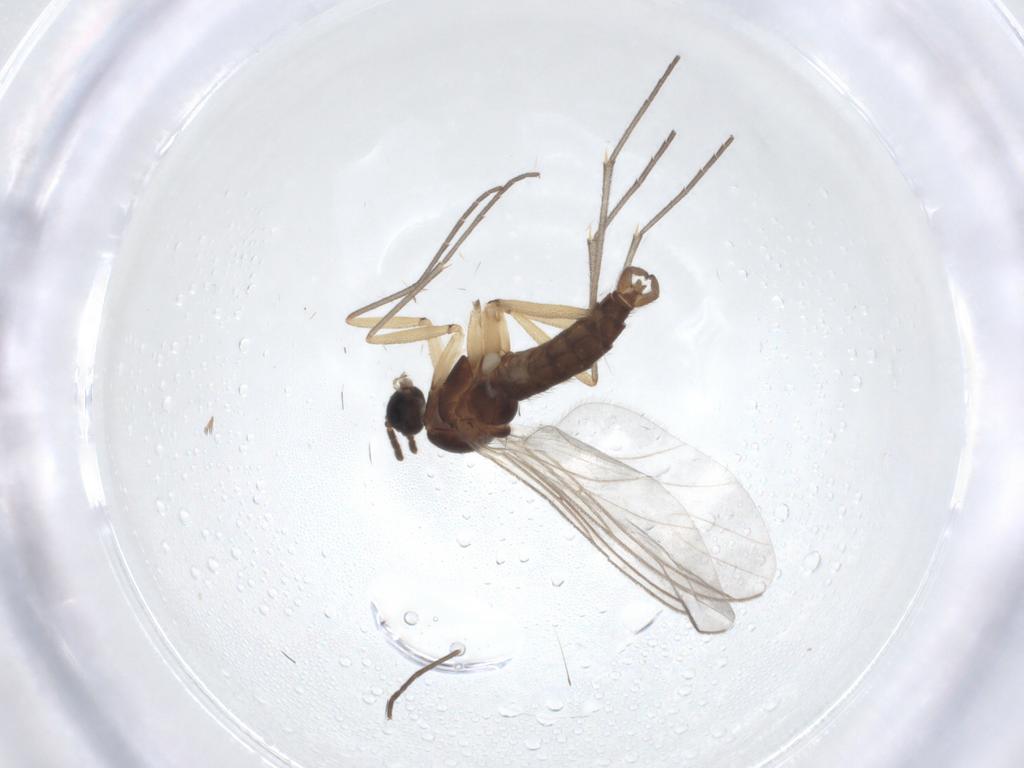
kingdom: Animalia
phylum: Arthropoda
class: Insecta
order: Diptera
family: Sciaridae
